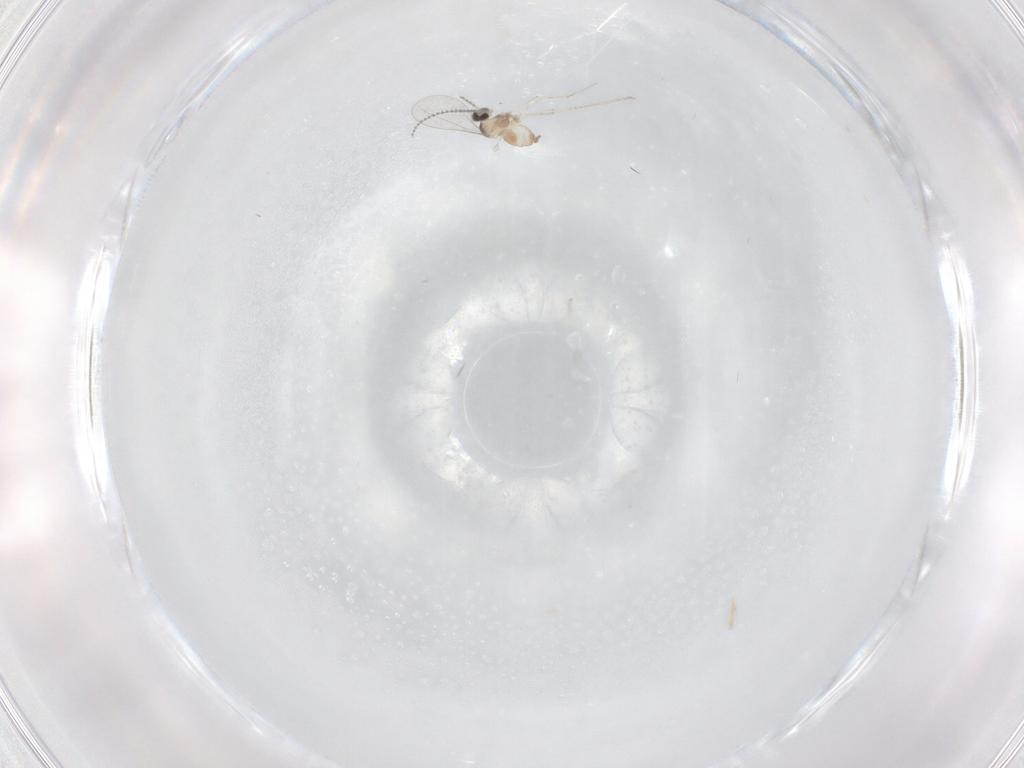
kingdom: Animalia
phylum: Arthropoda
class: Insecta
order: Diptera
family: Cecidomyiidae
